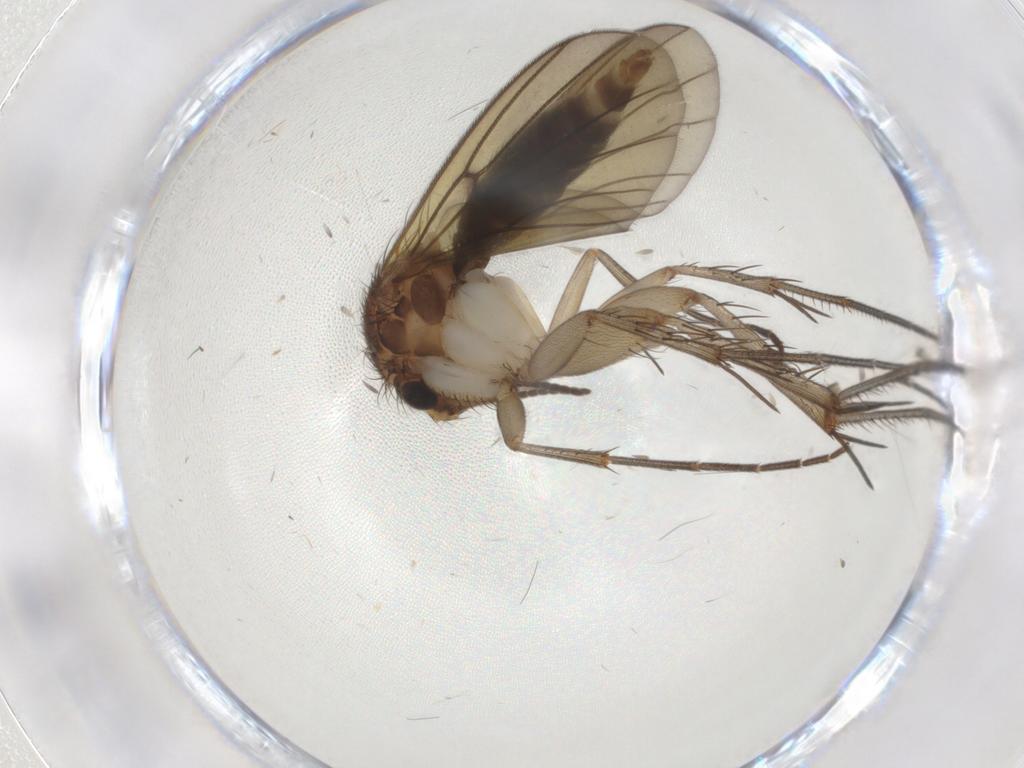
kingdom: Animalia
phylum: Arthropoda
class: Insecta
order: Diptera
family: Mycetophilidae
